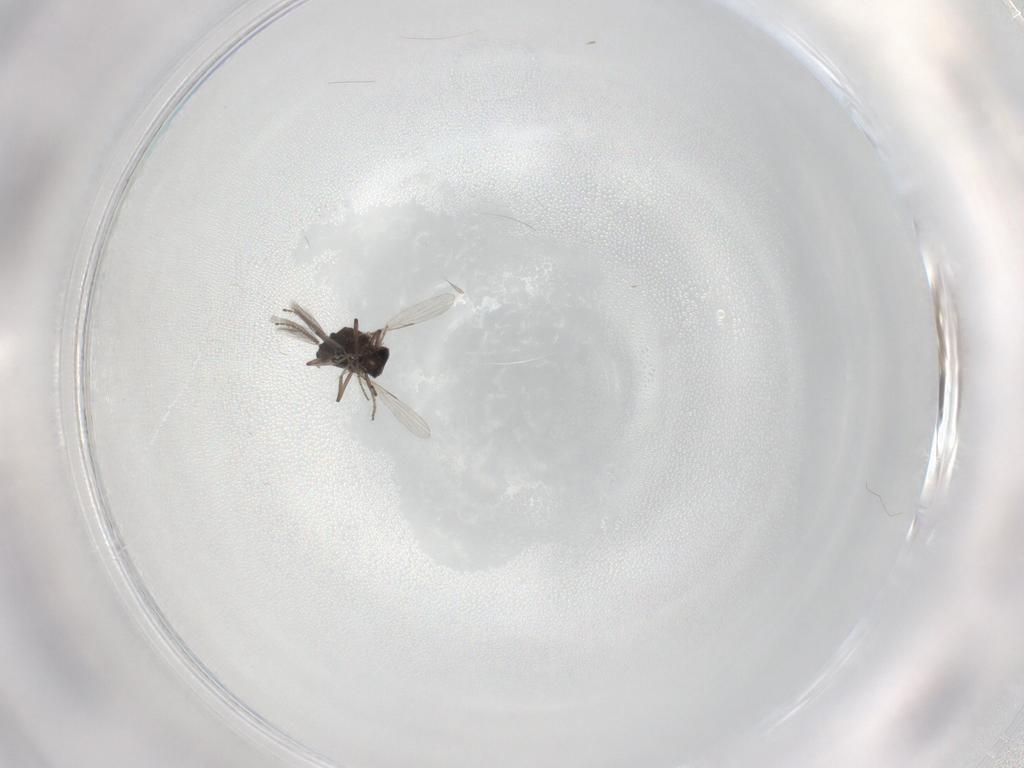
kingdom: Animalia
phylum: Arthropoda
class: Insecta
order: Diptera
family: Ceratopogonidae
